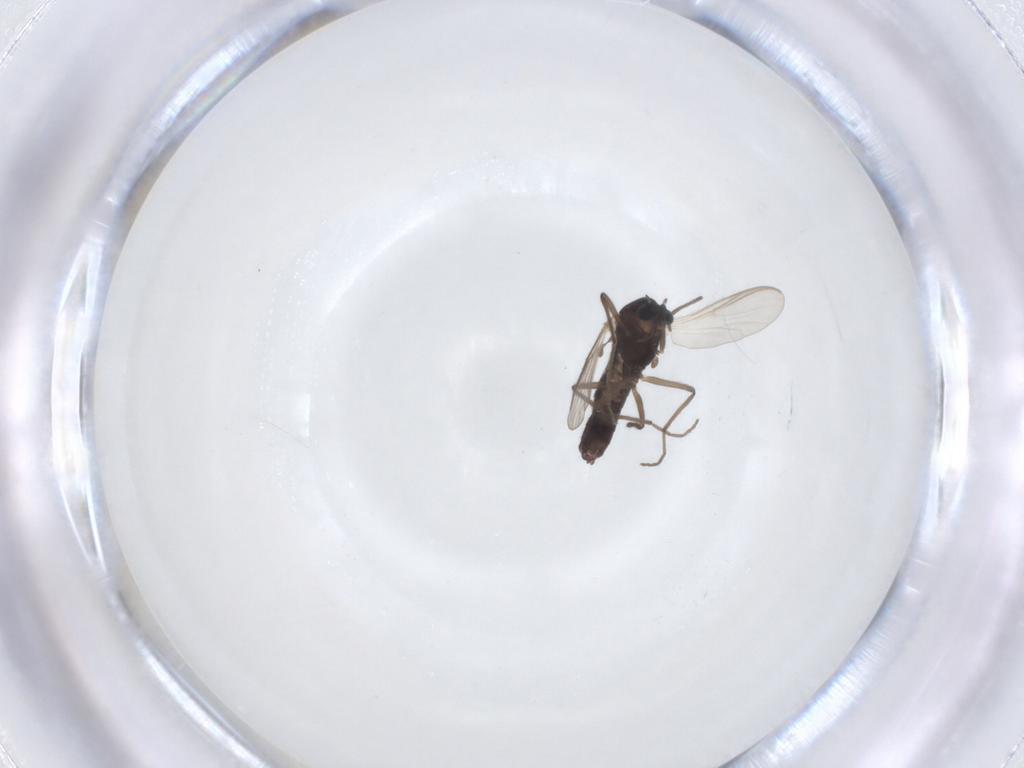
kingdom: Animalia
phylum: Arthropoda
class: Insecta
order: Diptera
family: Chironomidae
